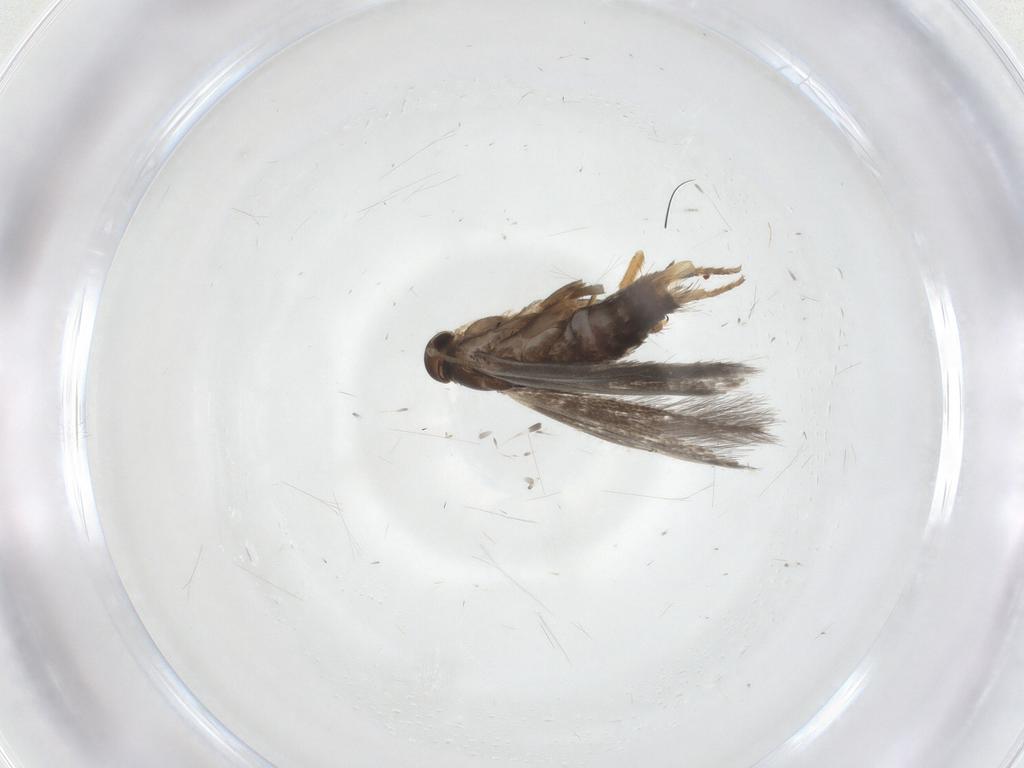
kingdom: Animalia
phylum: Arthropoda
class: Insecta
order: Lepidoptera
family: Elachistidae
